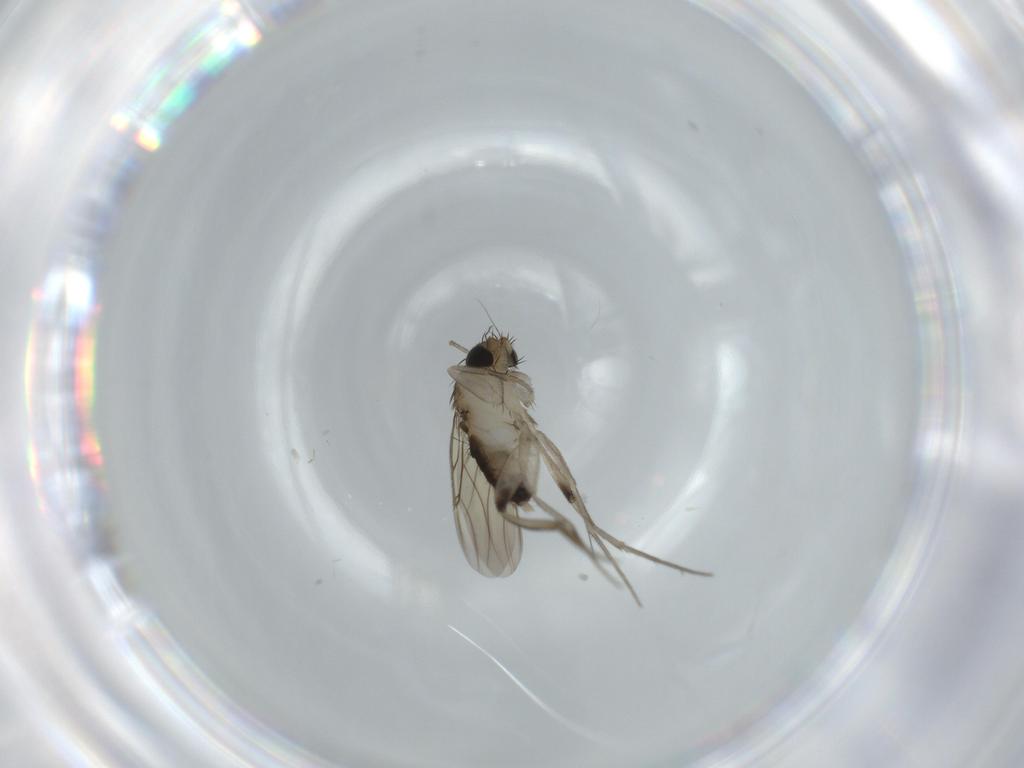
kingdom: Animalia
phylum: Arthropoda
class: Insecta
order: Diptera
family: Phoridae
